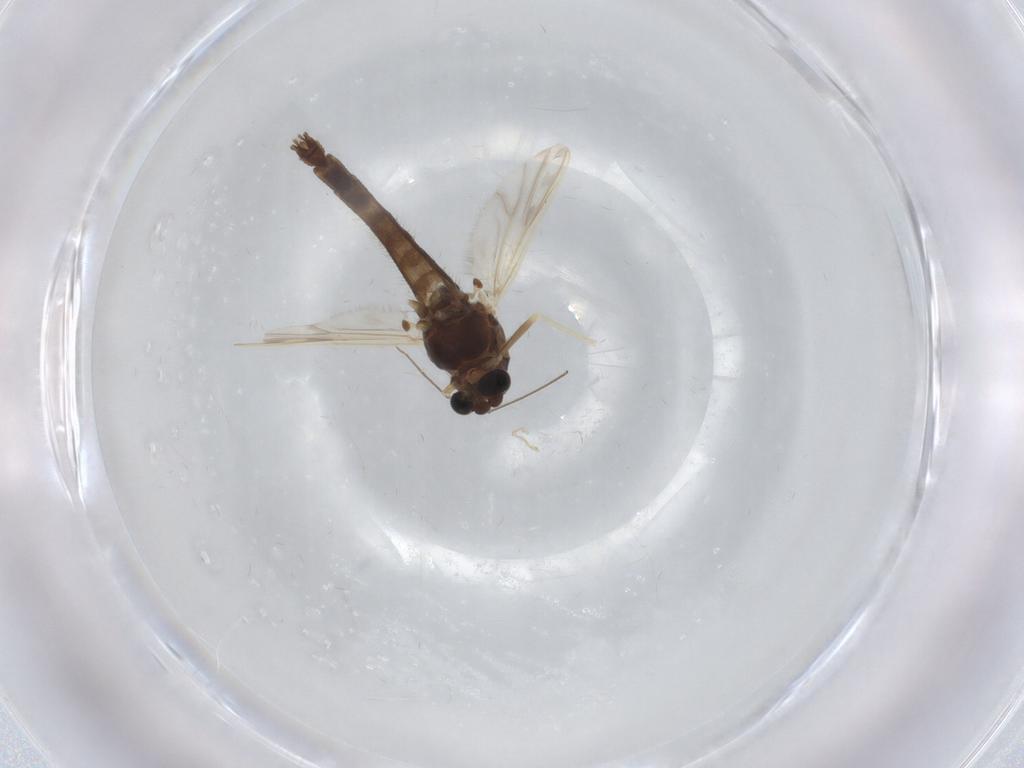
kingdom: Animalia
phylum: Arthropoda
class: Insecta
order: Diptera
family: Chironomidae
